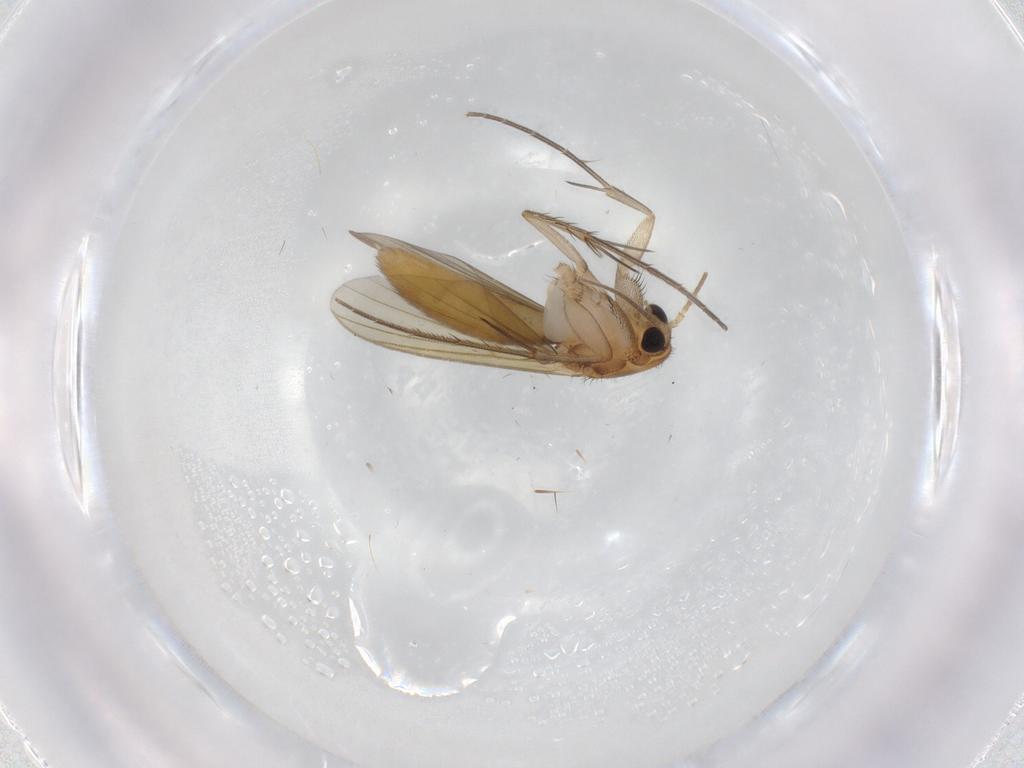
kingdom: Animalia
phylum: Arthropoda
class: Insecta
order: Diptera
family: Mycetophilidae
